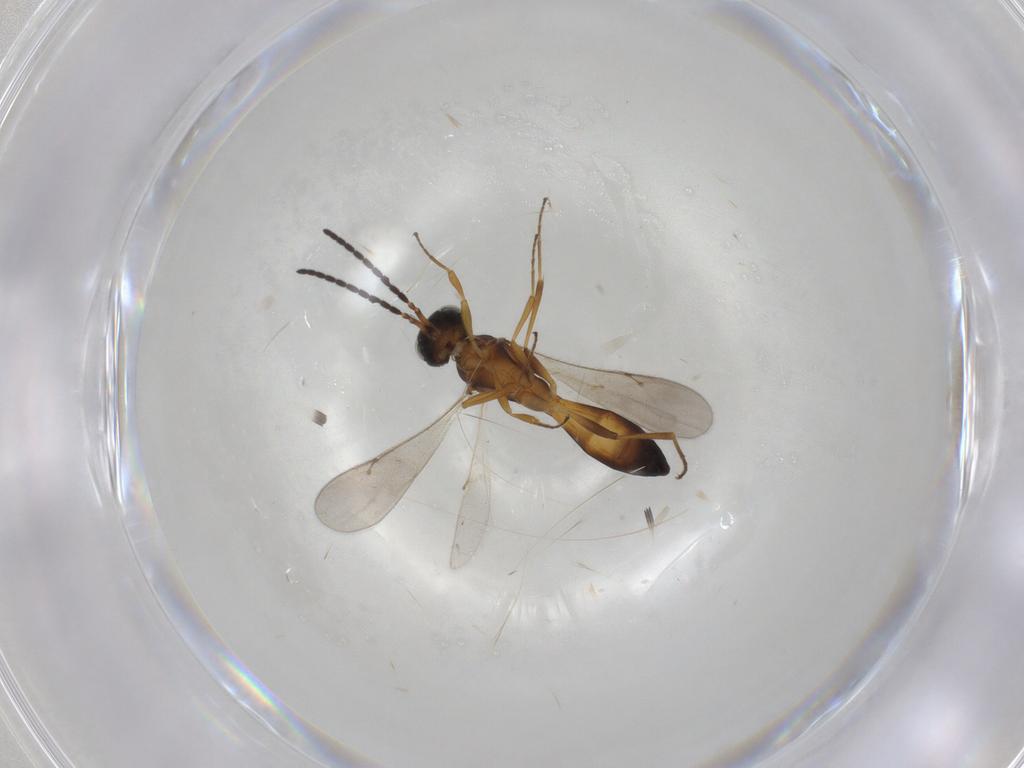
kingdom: Animalia
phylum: Arthropoda
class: Insecta
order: Hymenoptera
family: Scelionidae
